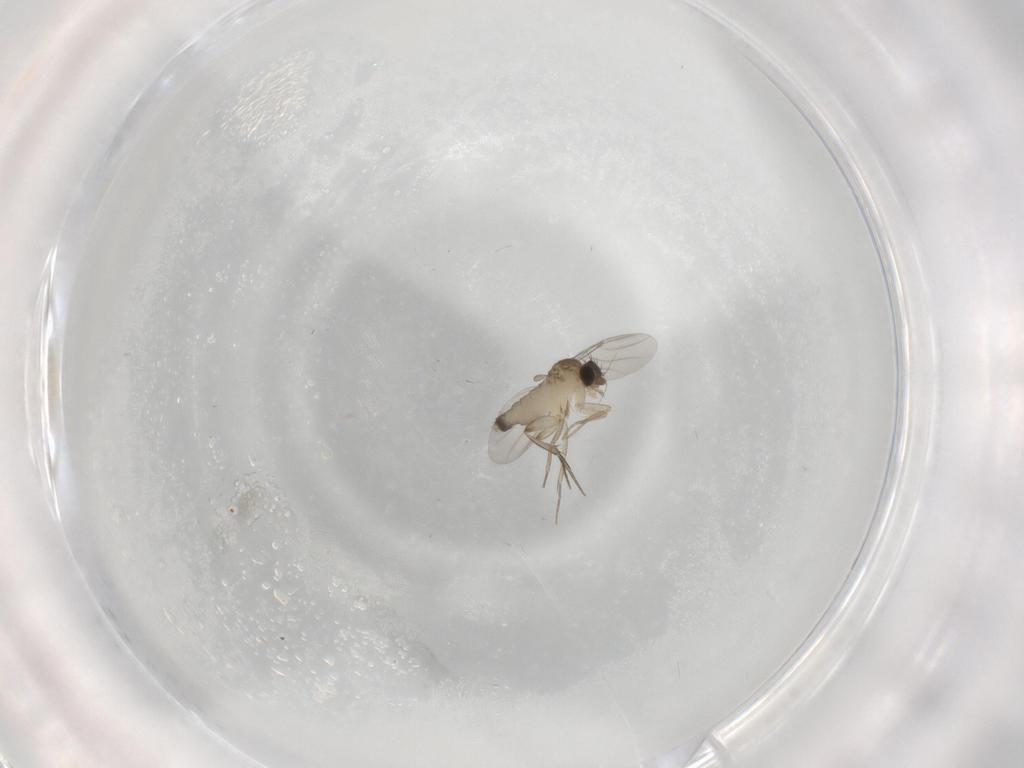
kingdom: Animalia
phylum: Arthropoda
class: Insecta
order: Diptera
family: Phoridae
